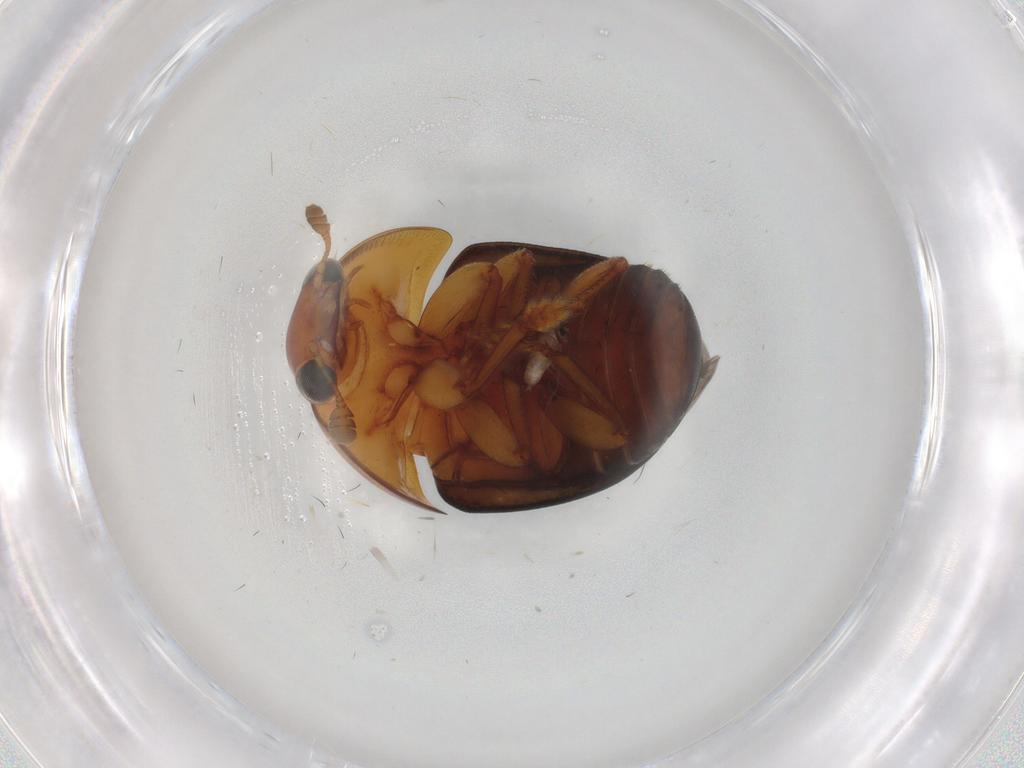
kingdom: Animalia
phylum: Arthropoda
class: Insecta
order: Coleoptera
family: Nitidulidae
